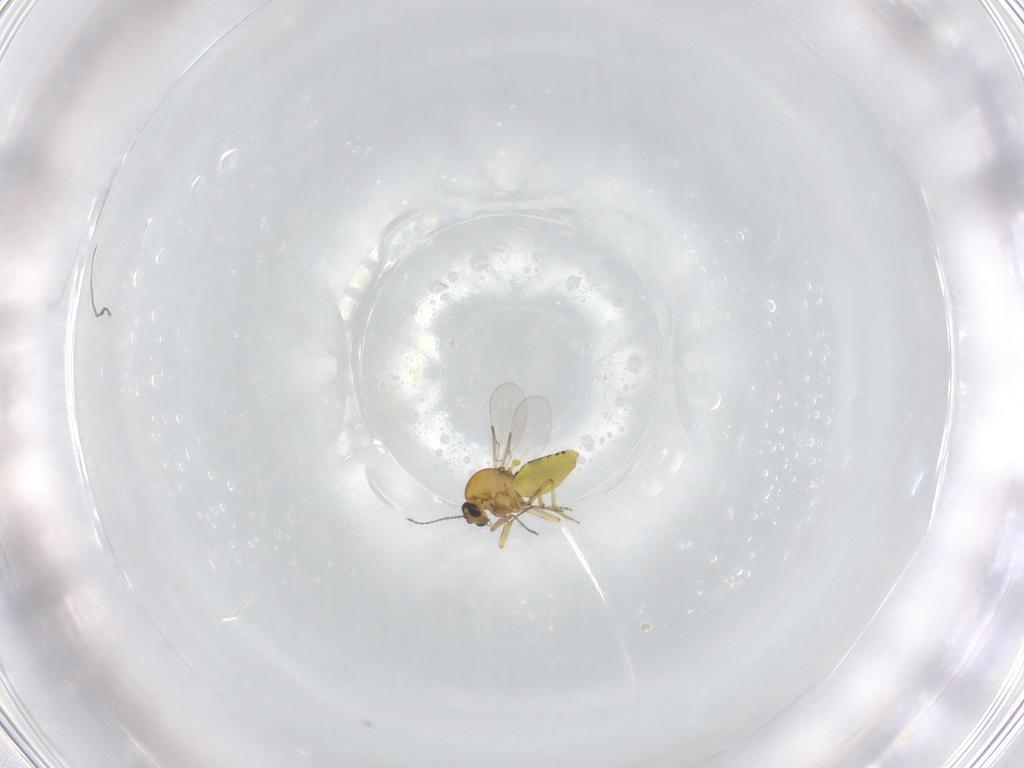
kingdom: Animalia
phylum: Arthropoda
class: Insecta
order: Diptera
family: Ceratopogonidae
